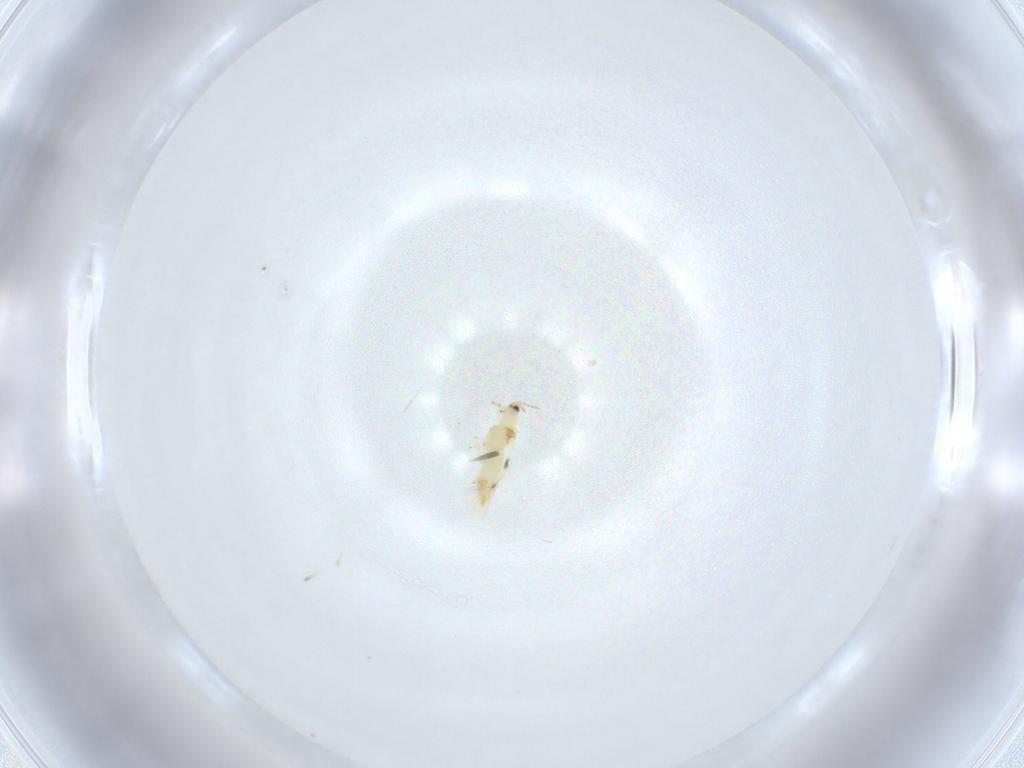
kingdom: Animalia
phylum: Arthropoda
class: Insecta
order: Thysanoptera
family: Thripidae
